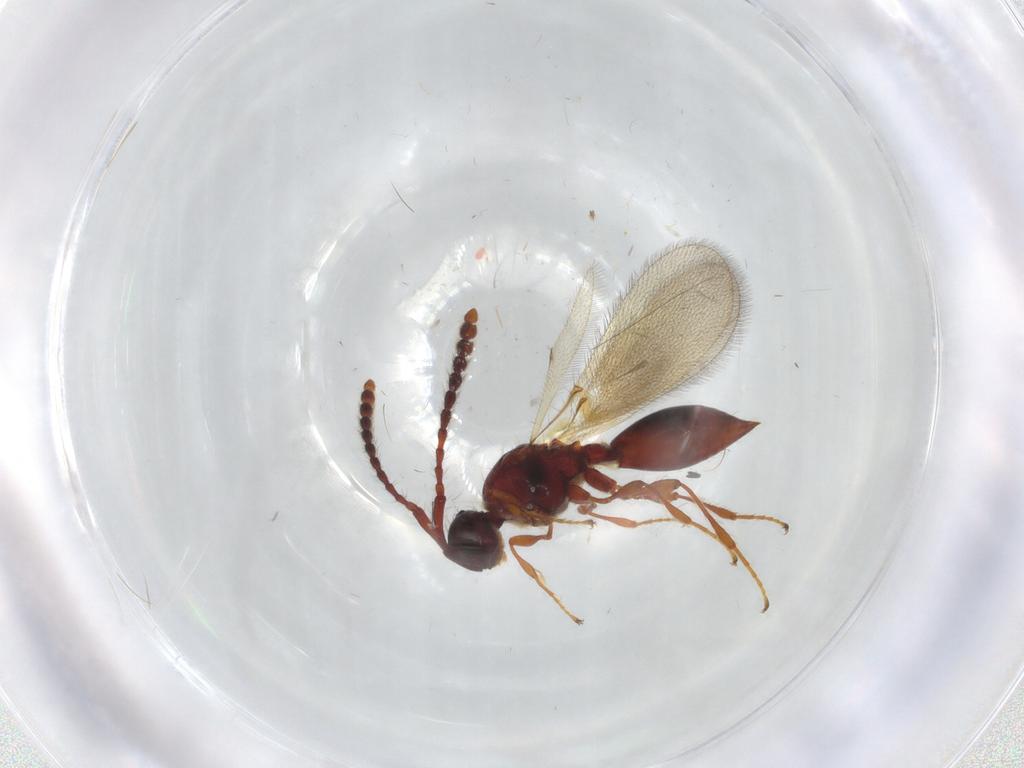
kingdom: Animalia
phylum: Arthropoda
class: Insecta
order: Hymenoptera
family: Diapriidae
